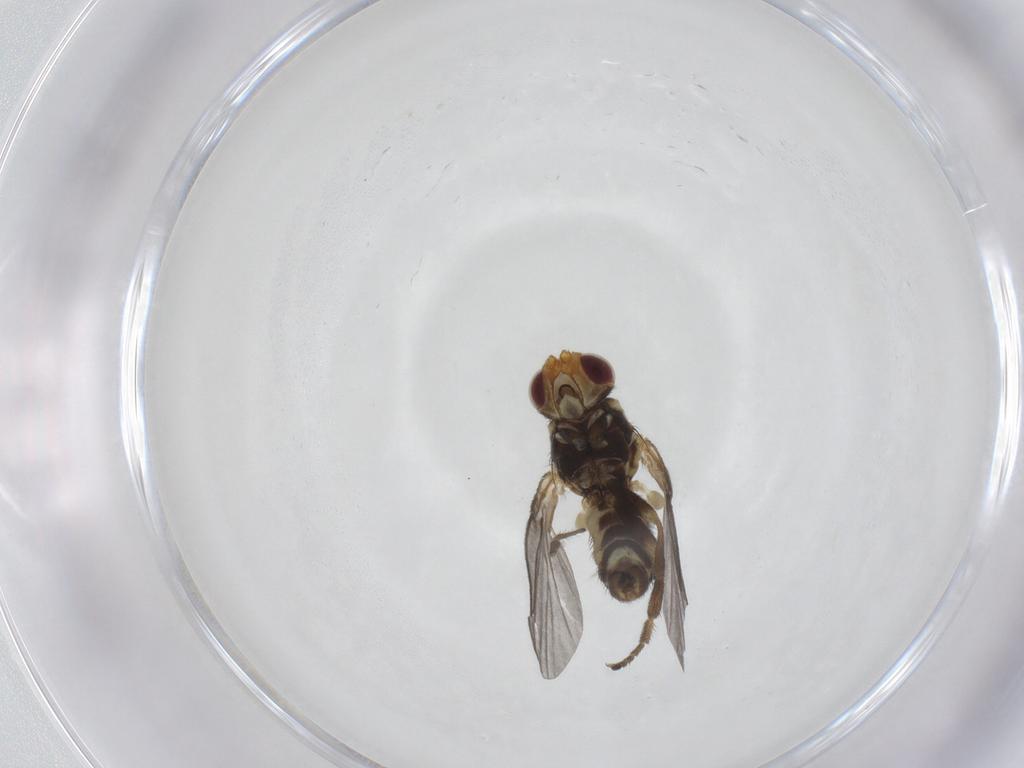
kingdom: Animalia
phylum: Arthropoda
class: Insecta
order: Diptera
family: Agromyzidae
